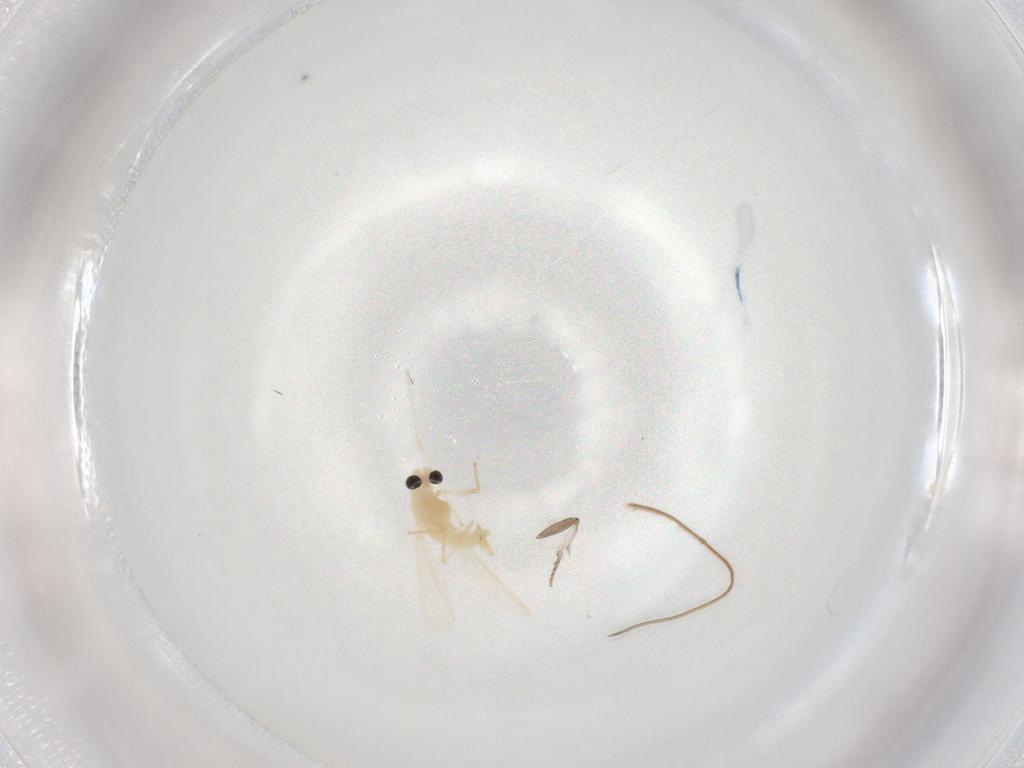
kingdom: Animalia
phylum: Arthropoda
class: Insecta
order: Diptera
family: Chironomidae
